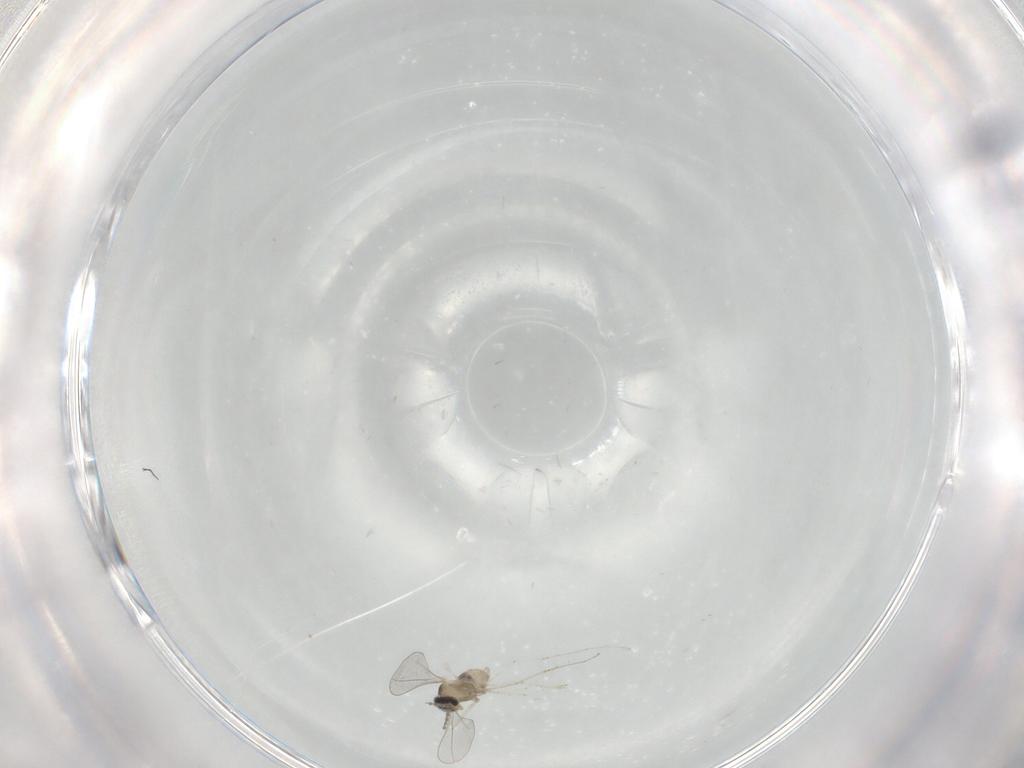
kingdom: Animalia
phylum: Arthropoda
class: Insecta
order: Diptera
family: Cecidomyiidae
